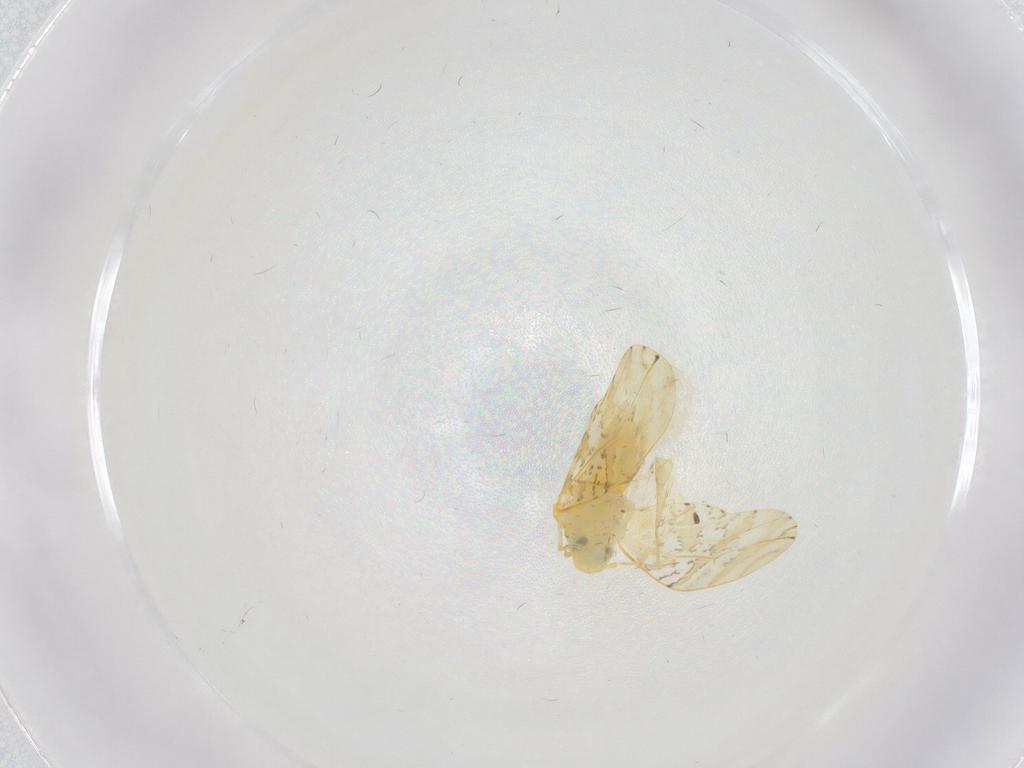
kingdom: Animalia
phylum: Arthropoda
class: Insecta
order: Hemiptera
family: Aleyrodidae
